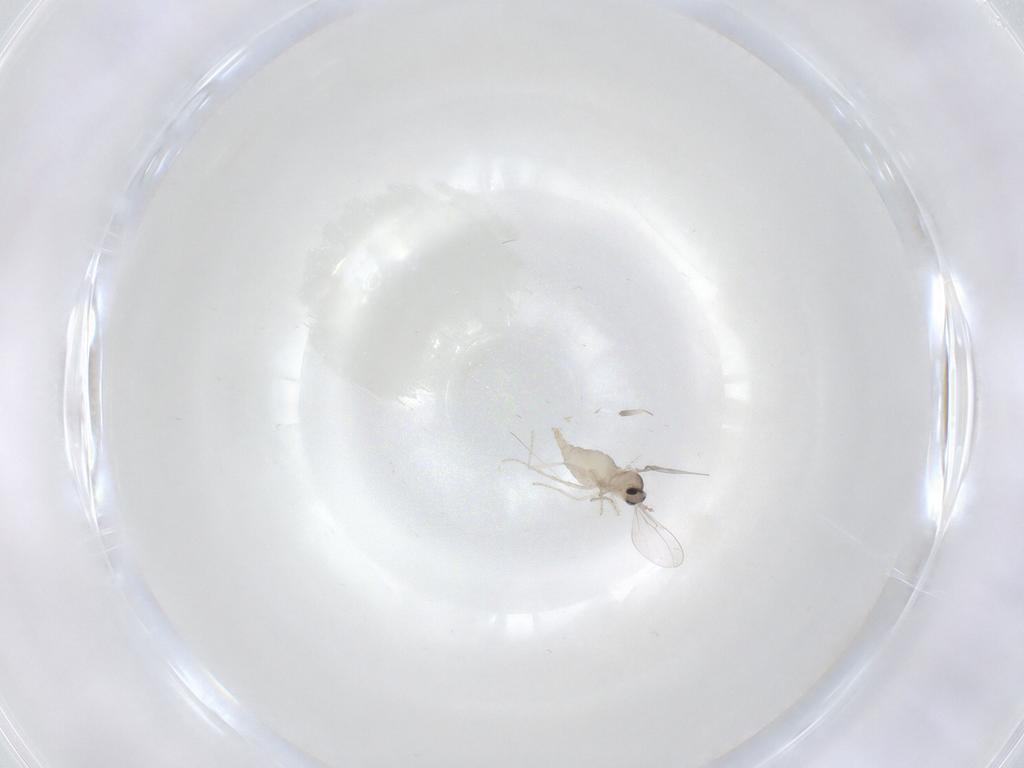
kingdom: Animalia
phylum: Arthropoda
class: Insecta
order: Diptera
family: Cecidomyiidae
